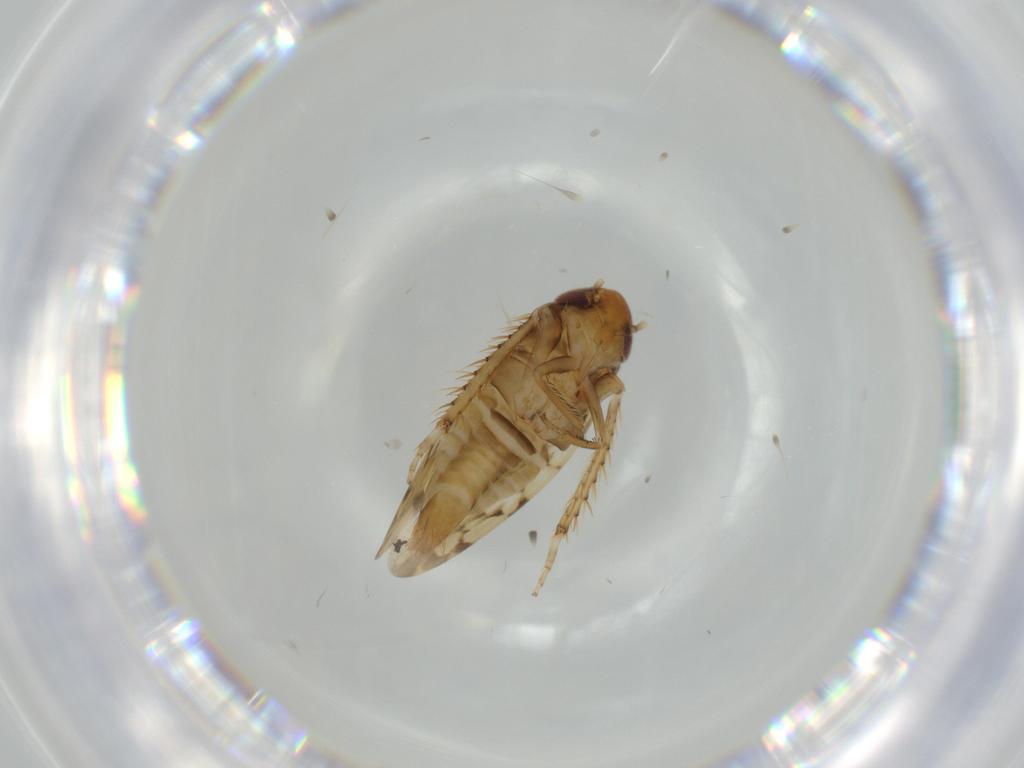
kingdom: Animalia
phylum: Arthropoda
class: Insecta
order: Hemiptera
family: Cicadellidae
